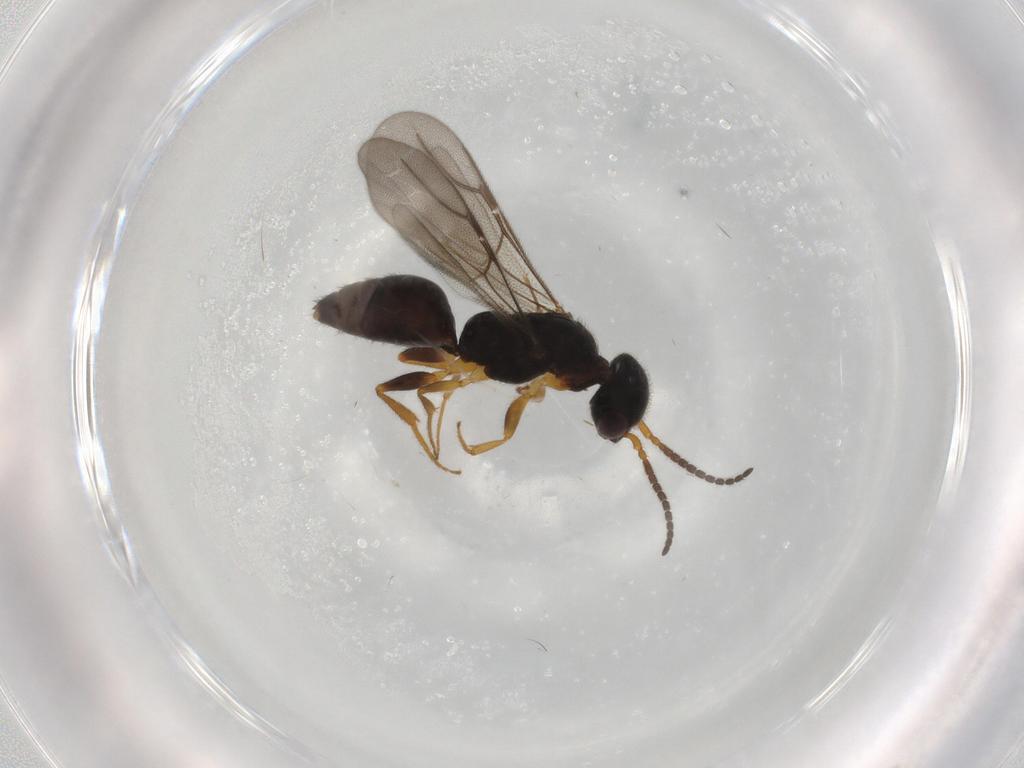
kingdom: Animalia
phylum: Arthropoda
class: Insecta
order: Hymenoptera
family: Bethylidae
